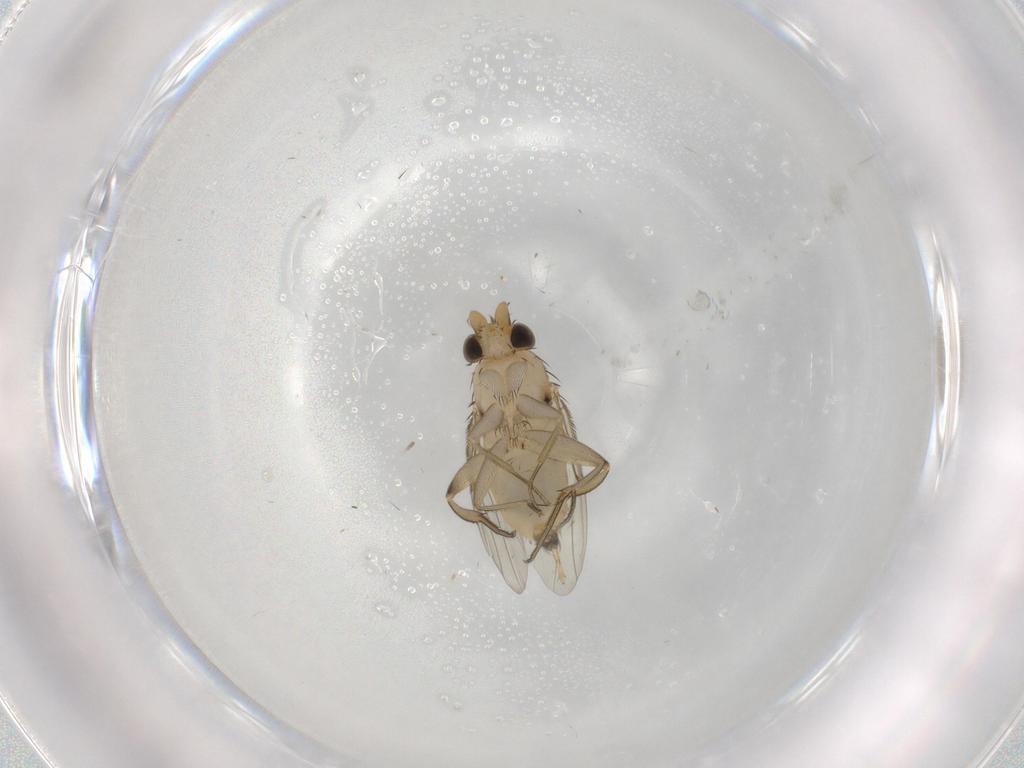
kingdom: Animalia
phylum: Arthropoda
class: Insecta
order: Diptera
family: Phoridae
